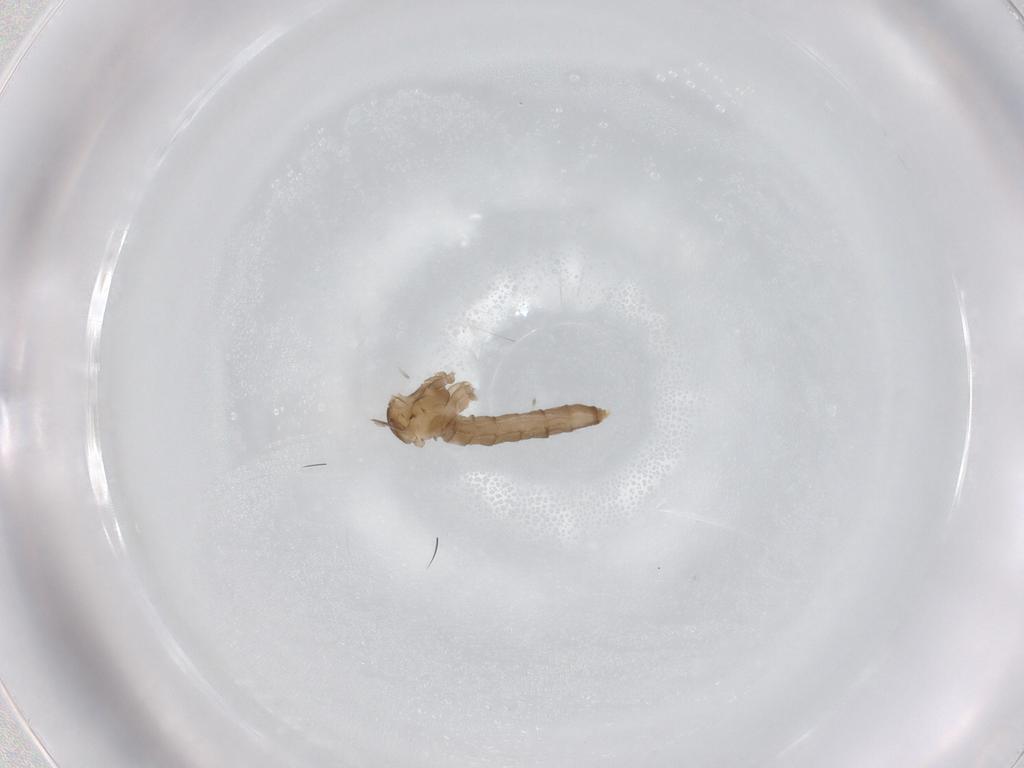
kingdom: Animalia
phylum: Arthropoda
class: Insecta
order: Diptera
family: Cecidomyiidae
